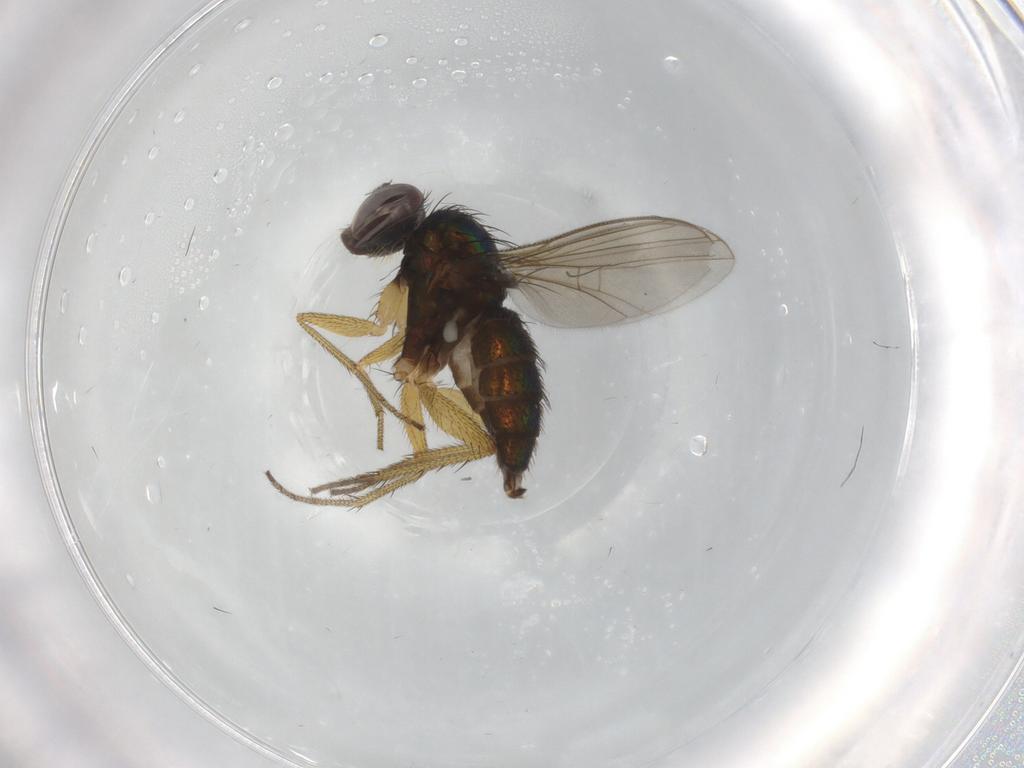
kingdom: Animalia
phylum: Arthropoda
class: Insecta
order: Diptera
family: Dolichopodidae
